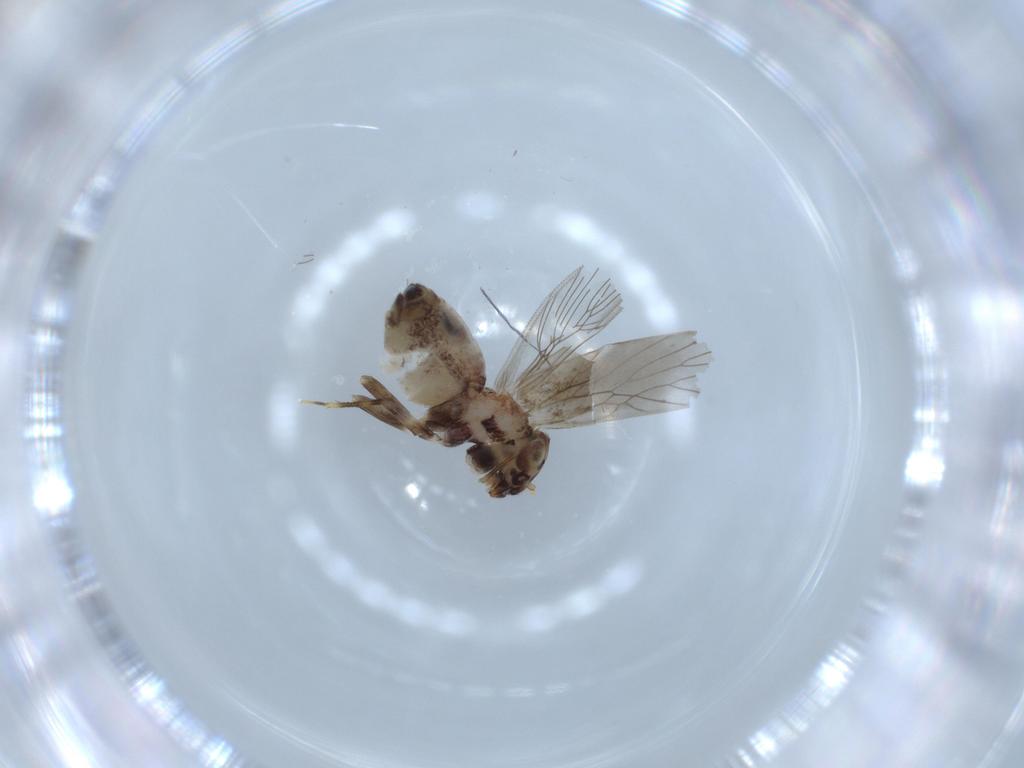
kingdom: Animalia
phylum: Arthropoda
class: Insecta
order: Psocodea
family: Lepidopsocidae
